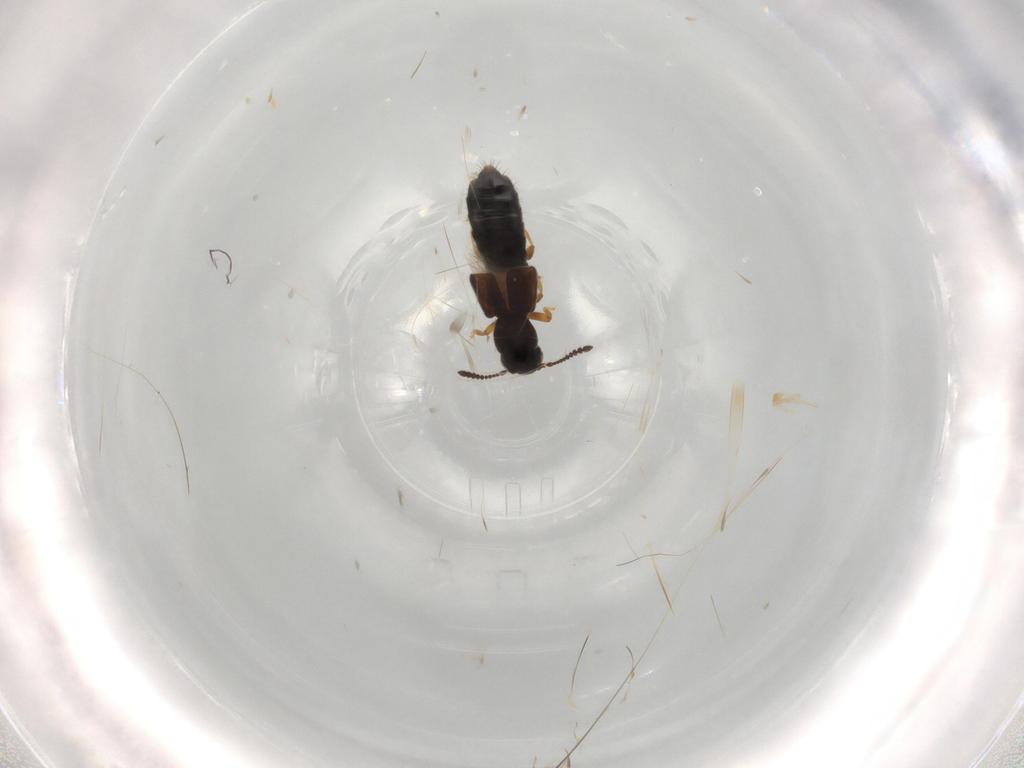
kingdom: Animalia
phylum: Arthropoda
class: Insecta
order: Coleoptera
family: Staphylinidae
